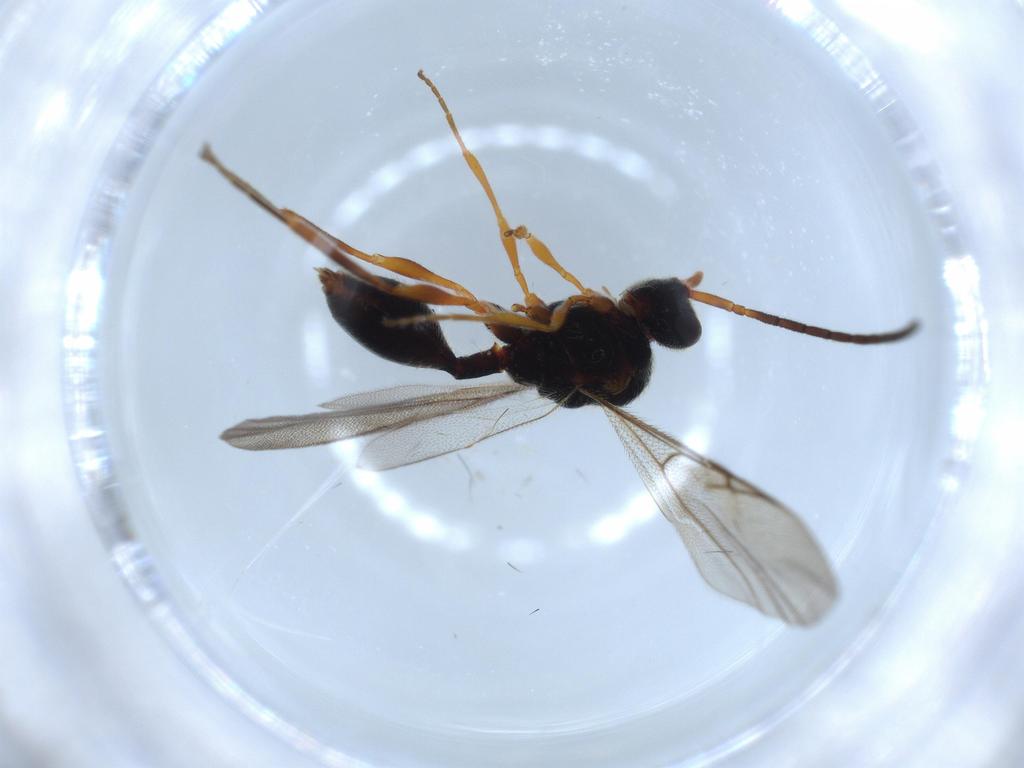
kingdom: Animalia
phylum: Arthropoda
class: Insecta
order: Hymenoptera
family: Diapriidae
